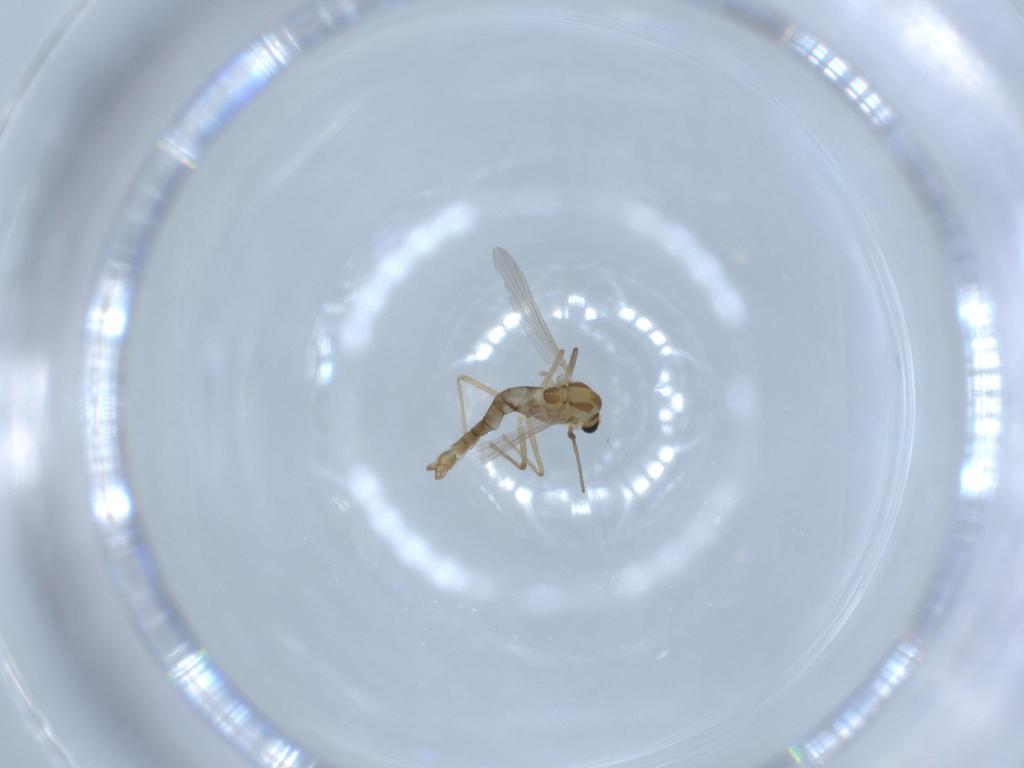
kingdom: Animalia
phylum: Arthropoda
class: Insecta
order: Diptera
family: Chironomidae
